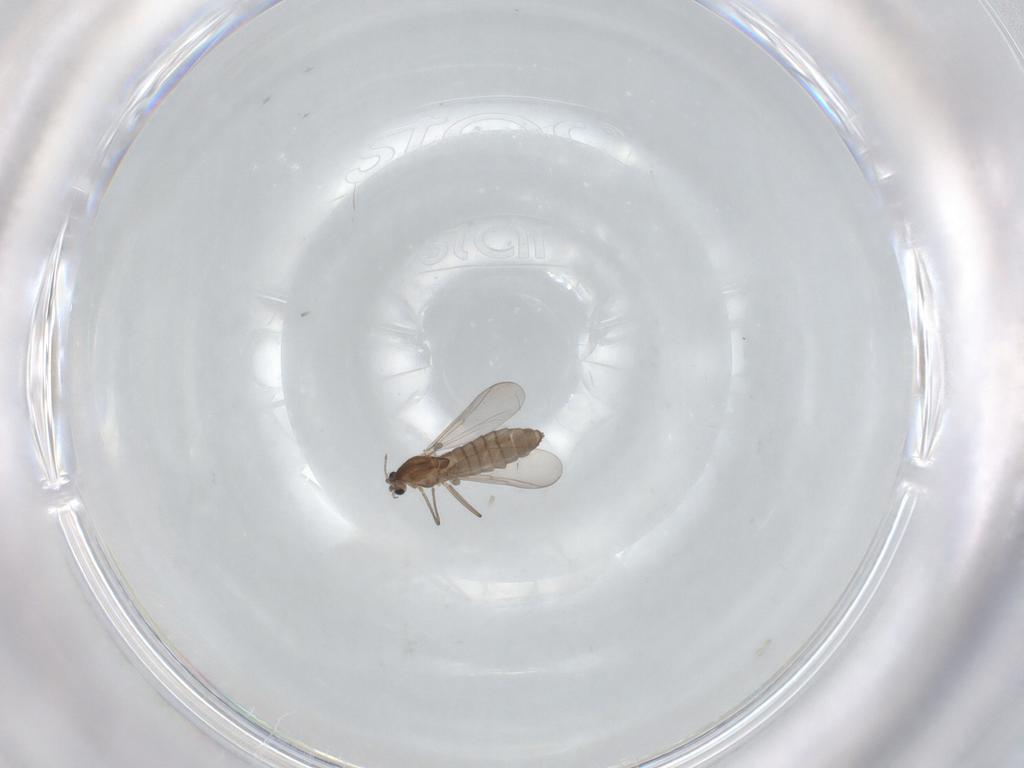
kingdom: Animalia
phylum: Arthropoda
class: Insecta
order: Diptera
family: Chironomidae
